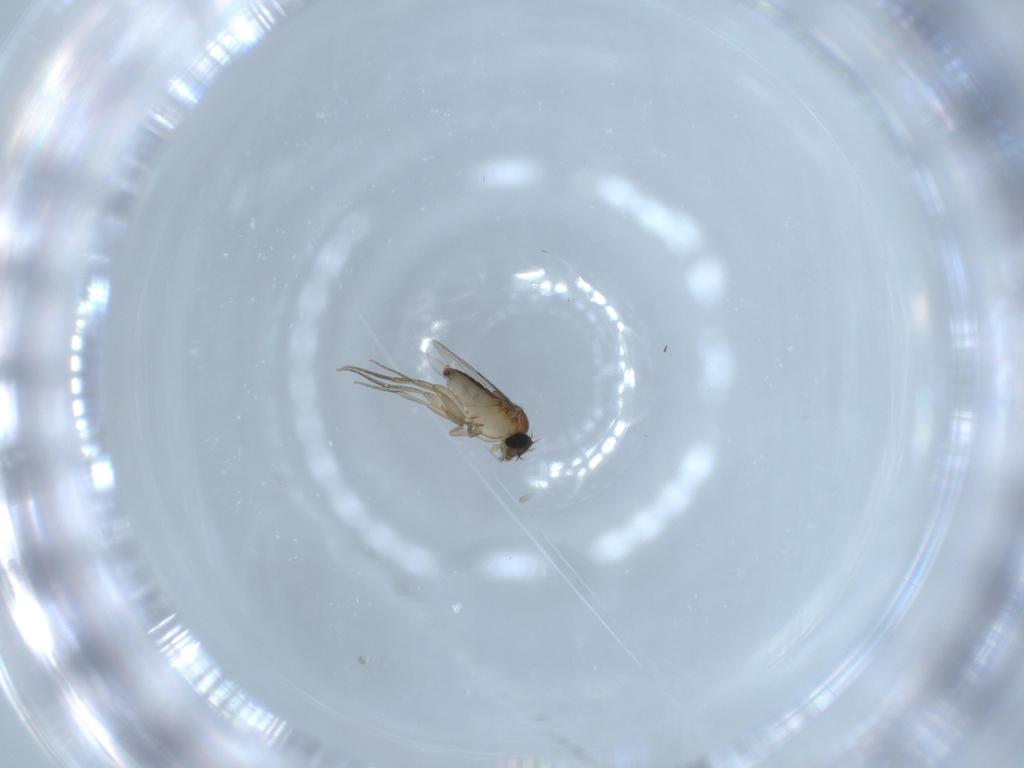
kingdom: Animalia
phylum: Arthropoda
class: Insecta
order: Diptera
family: Phoridae
